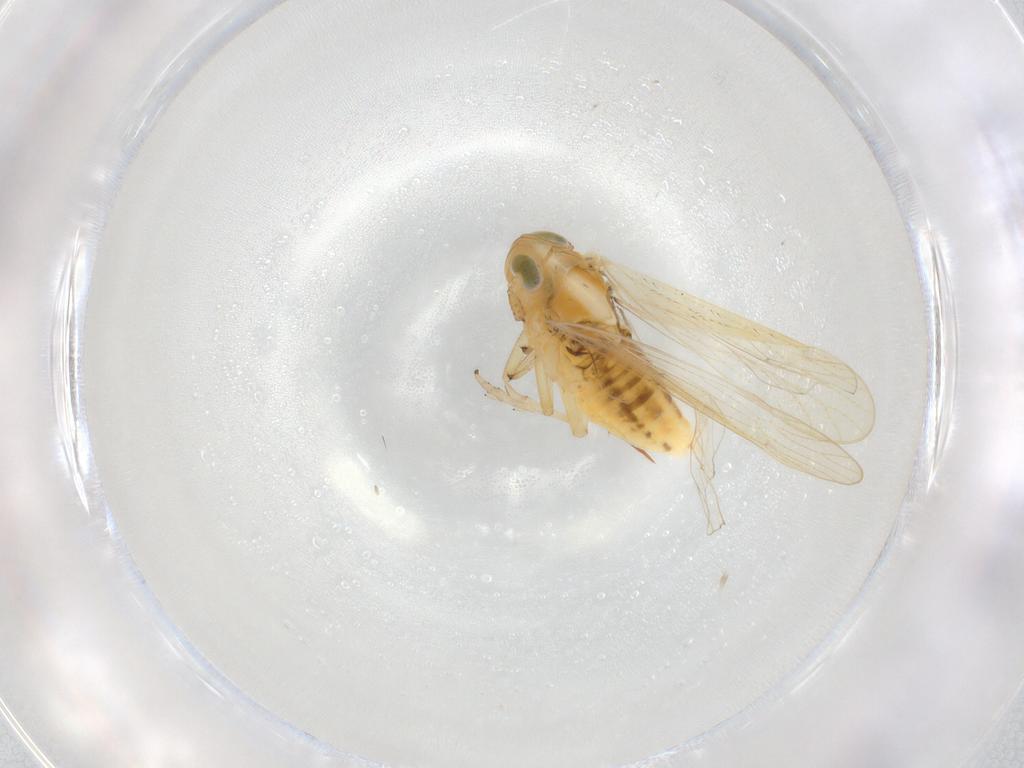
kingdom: Animalia
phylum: Arthropoda
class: Insecta
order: Hemiptera
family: Delphacidae
